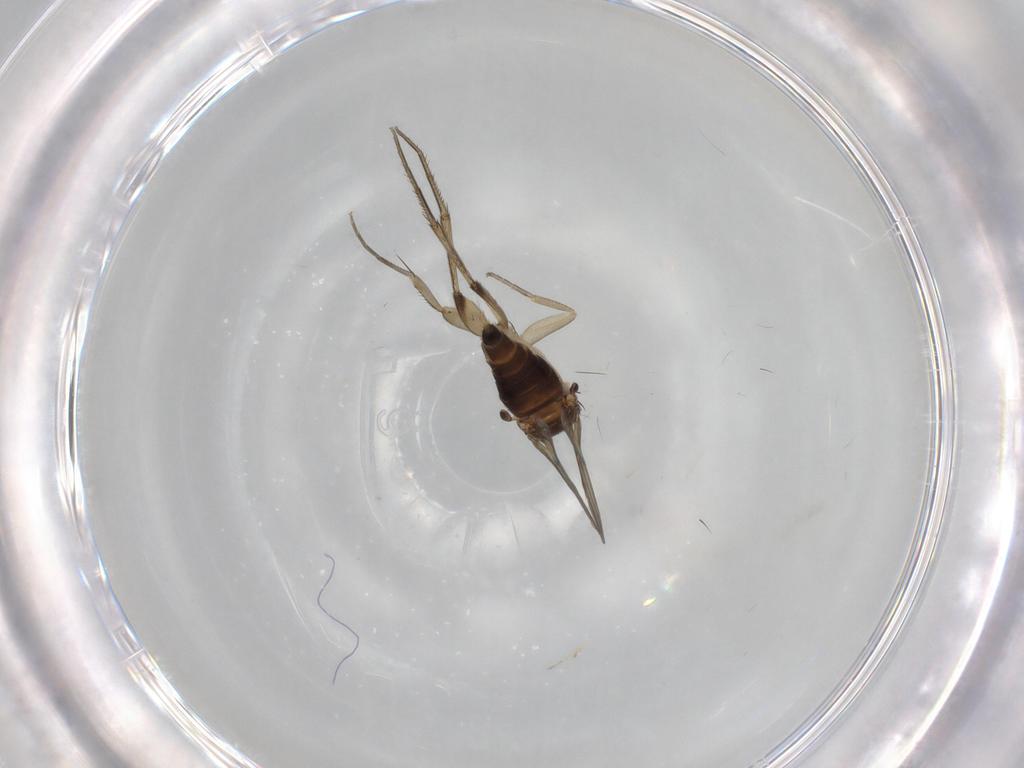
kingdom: Animalia
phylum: Arthropoda
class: Insecta
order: Diptera
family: Phoridae
